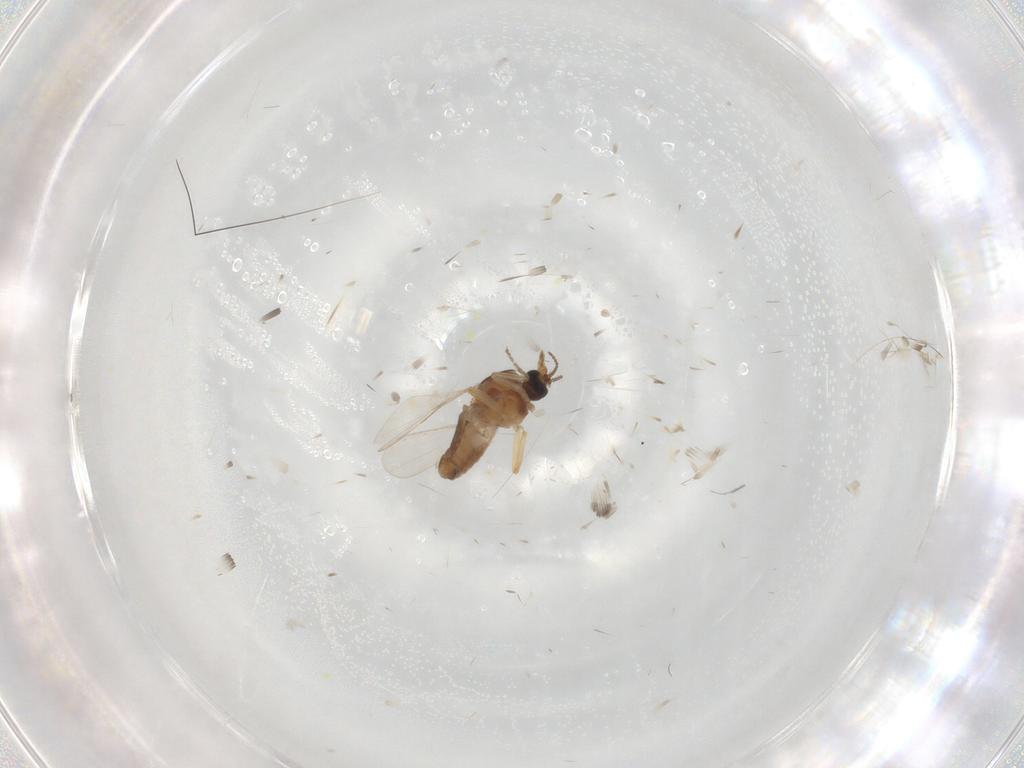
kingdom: Animalia
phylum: Arthropoda
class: Insecta
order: Diptera
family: Ceratopogonidae
